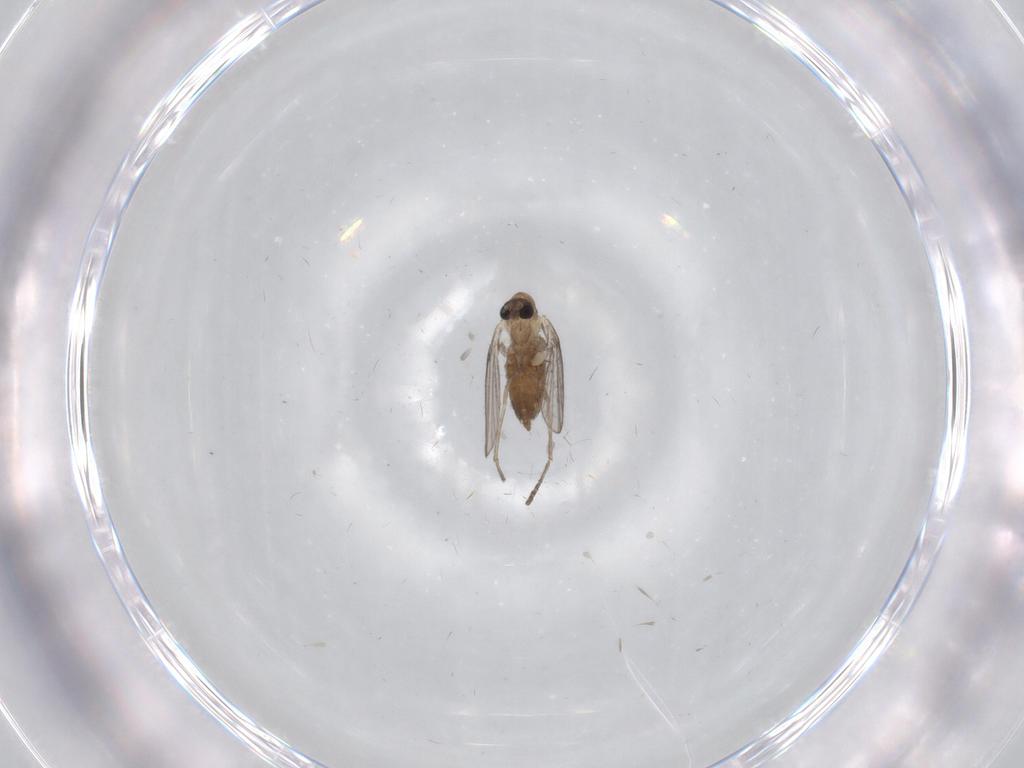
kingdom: Animalia
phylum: Arthropoda
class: Insecta
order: Diptera
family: Psychodidae
